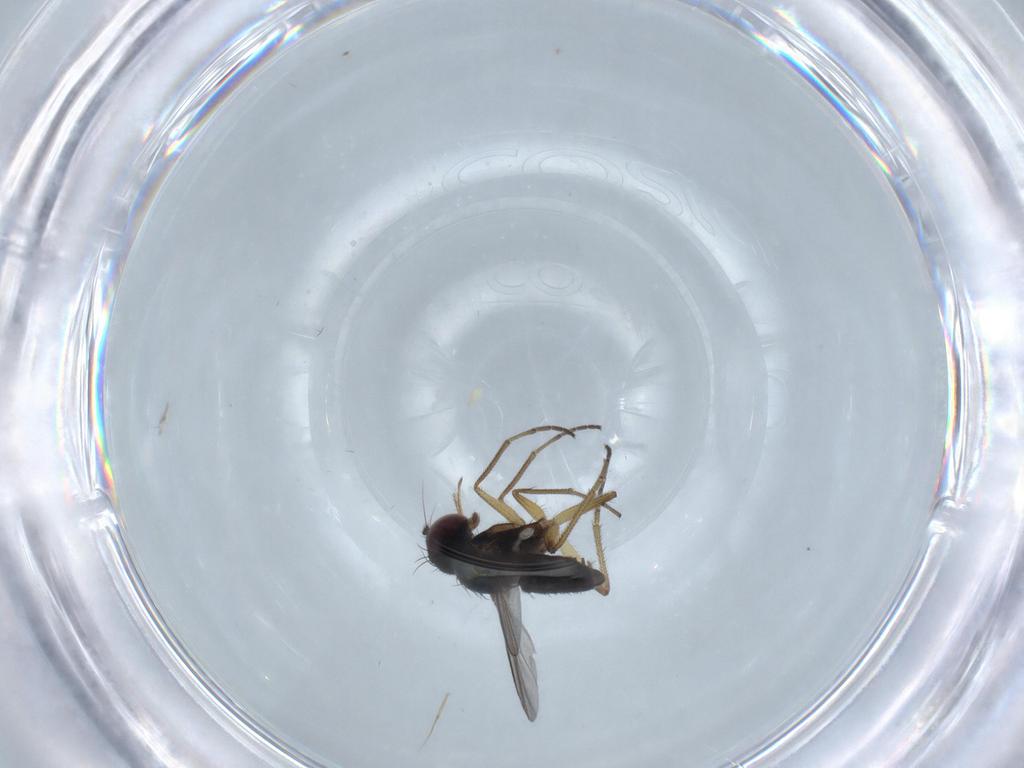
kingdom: Animalia
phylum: Arthropoda
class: Insecta
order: Diptera
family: Dolichopodidae
